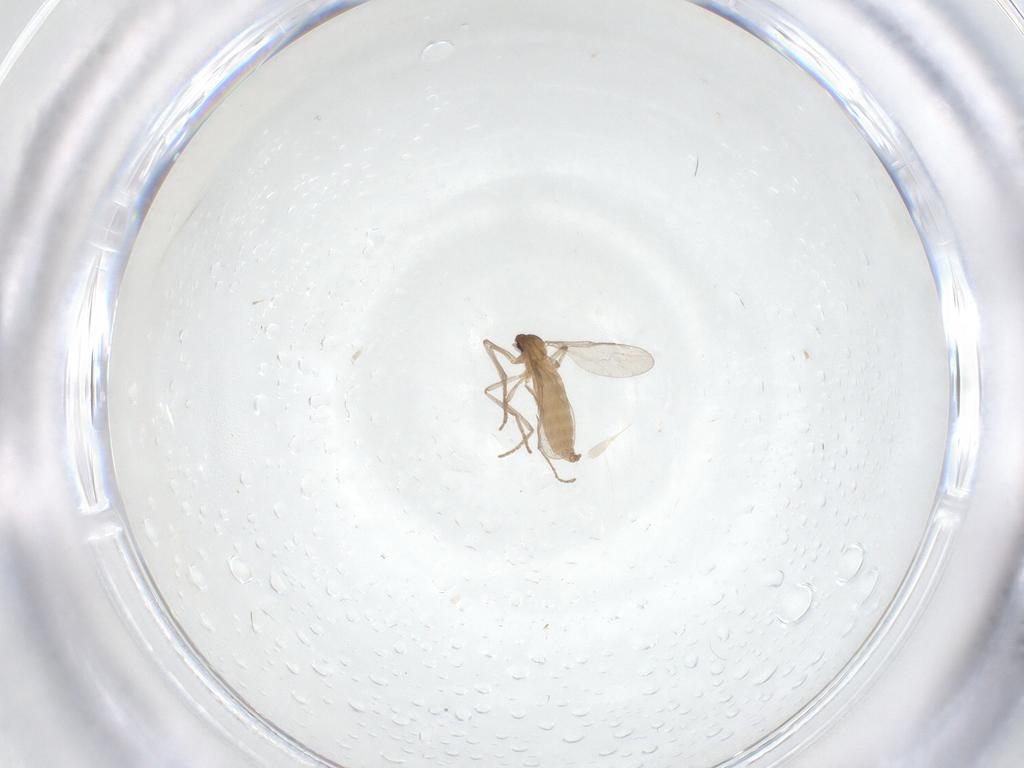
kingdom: Animalia
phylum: Arthropoda
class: Insecta
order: Diptera
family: Cecidomyiidae
